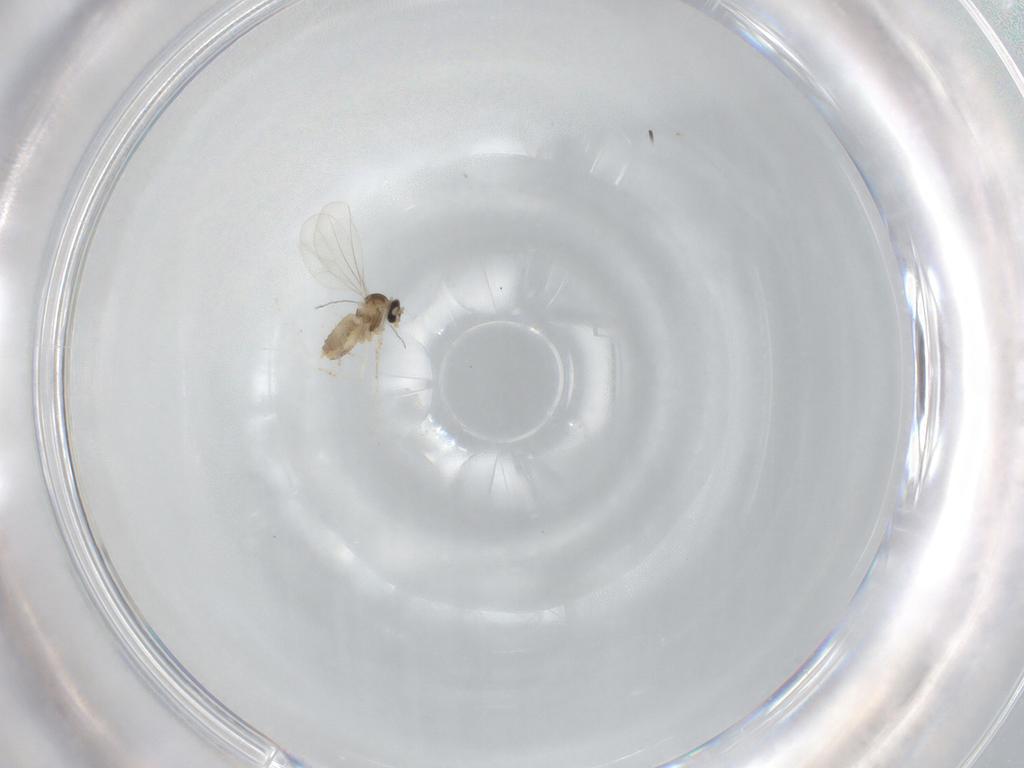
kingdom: Animalia
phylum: Arthropoda
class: Insecta
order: Diptera
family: Cecidomyiidae
